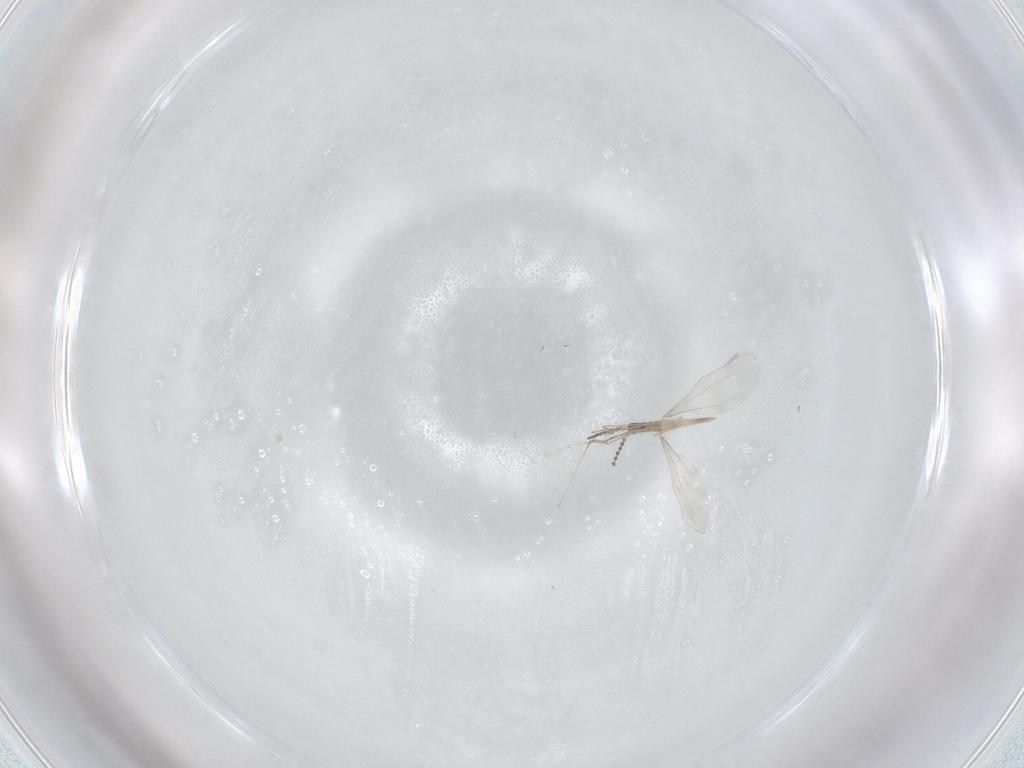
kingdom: Animalia
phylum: Arthropoda
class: Insecta
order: Diptera
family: Cecidomyiidae
